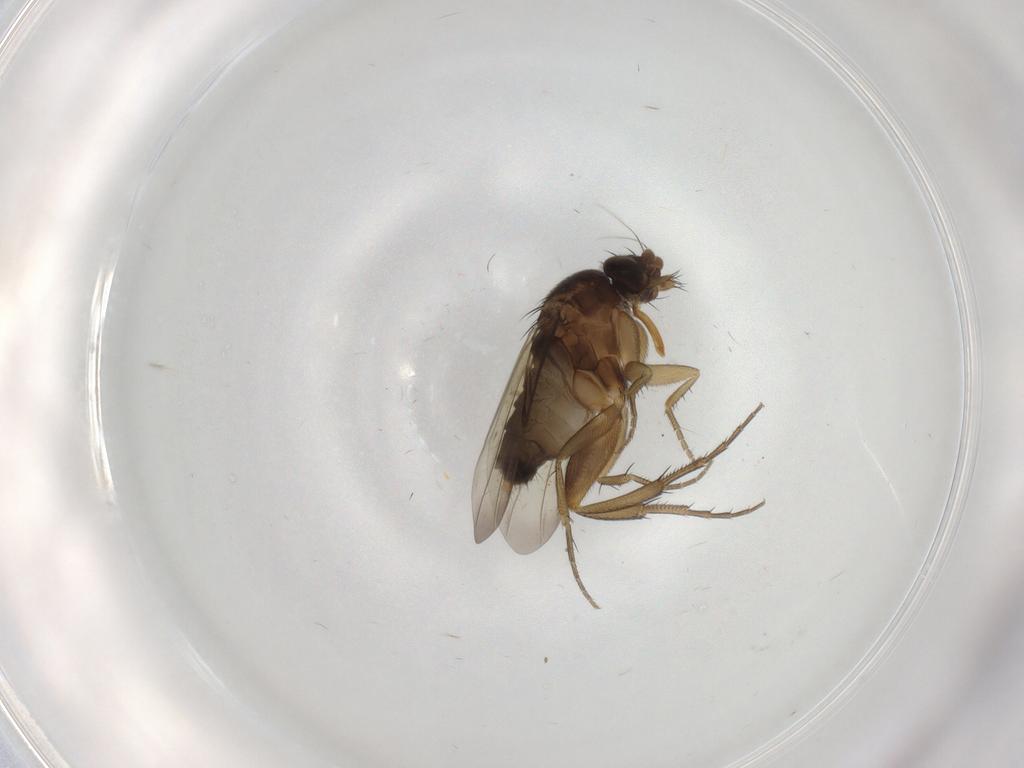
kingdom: Animalia
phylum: Arthropoda
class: Insecta
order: Diptera
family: Phoridae
